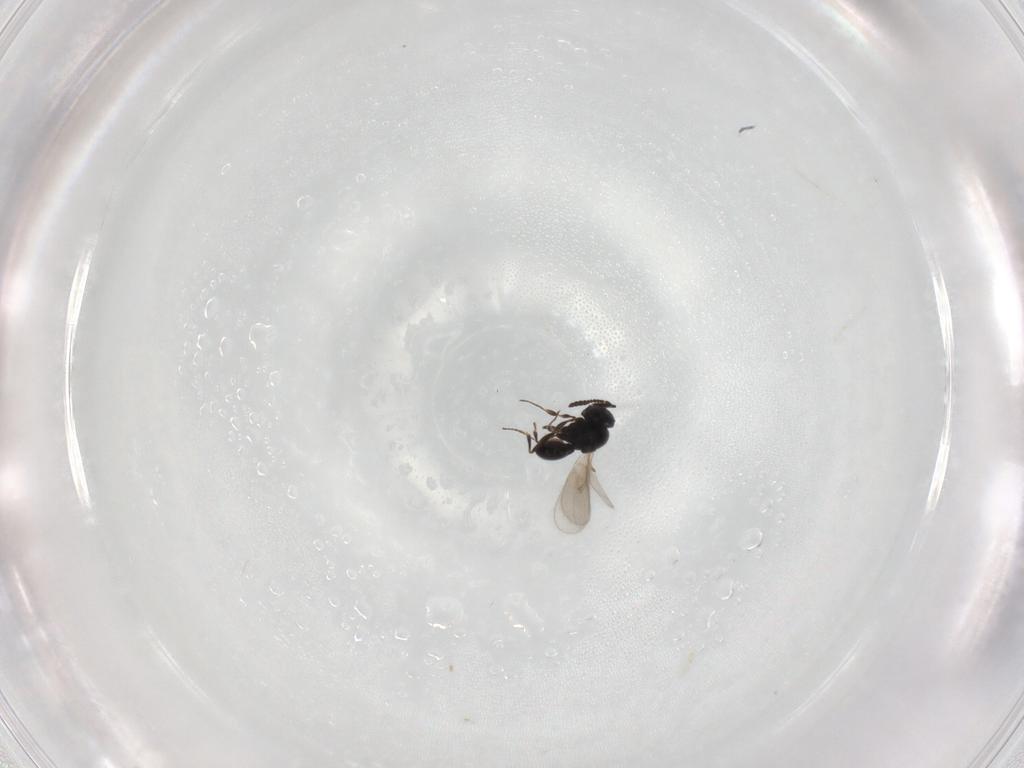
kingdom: Animalia
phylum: Arthropoda
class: Insecta
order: Hymenoptera
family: Scelionidae
